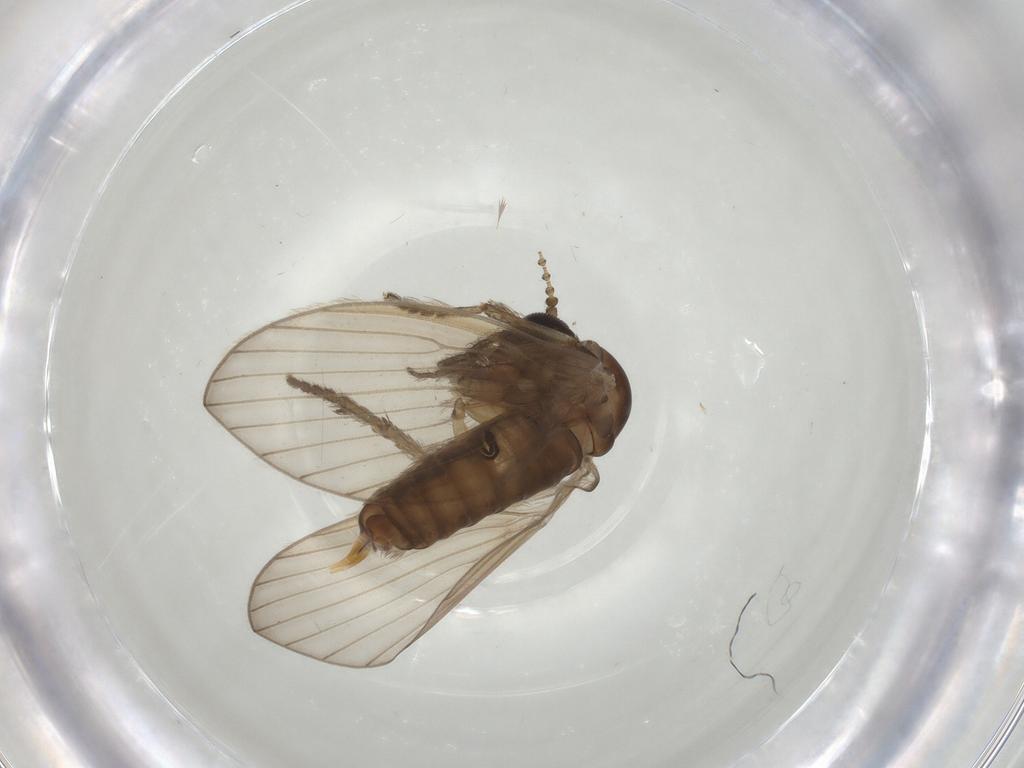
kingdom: Animalia
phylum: Arthropoda
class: Insecta
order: Diptera
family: Psychodidae
